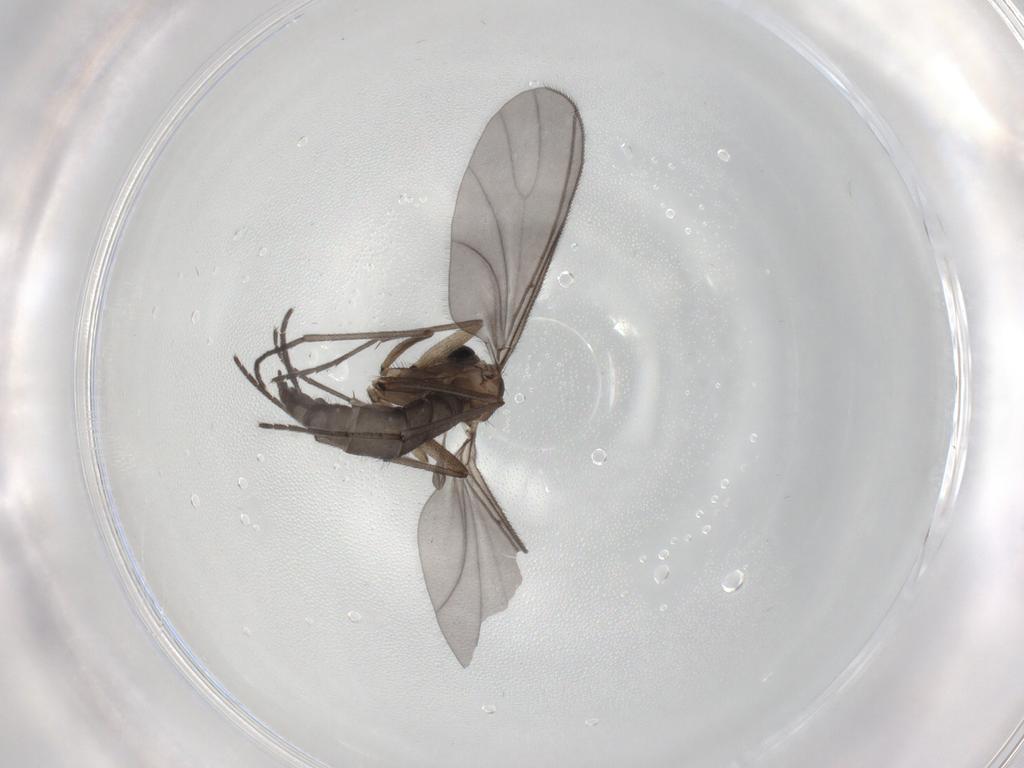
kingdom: Animalia
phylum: Arthropoda
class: Insecta
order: Diptera
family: Sciaridae
